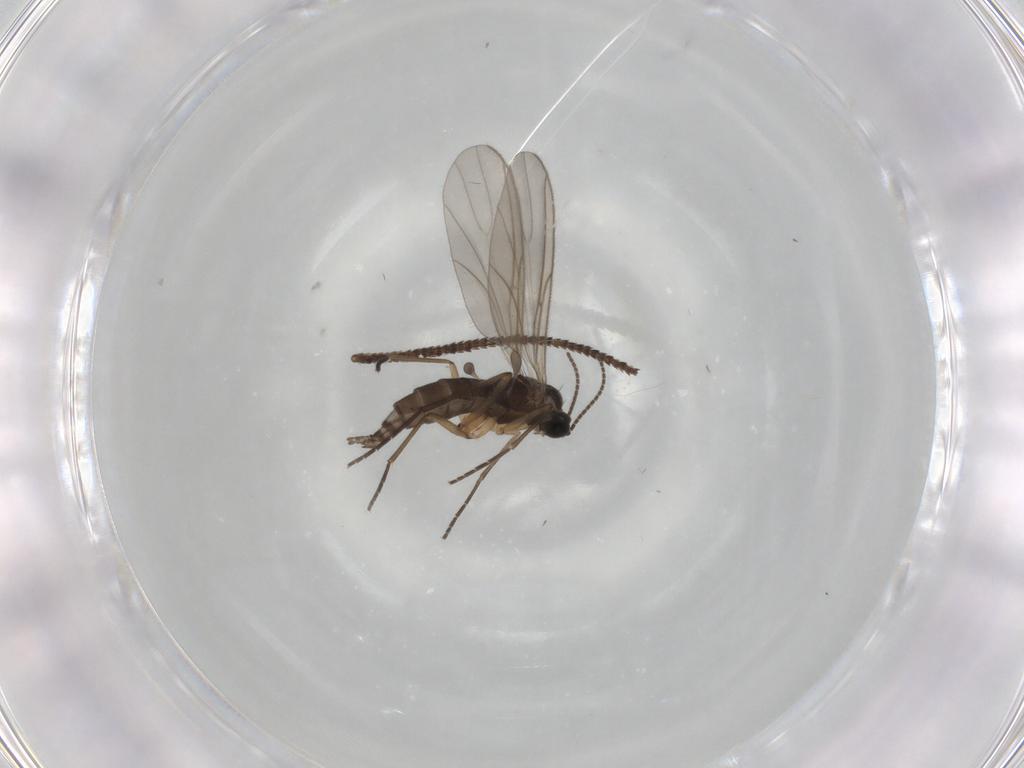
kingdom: Animalia
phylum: Arthropoda
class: Insecta
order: Diptera
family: Sciaridae
